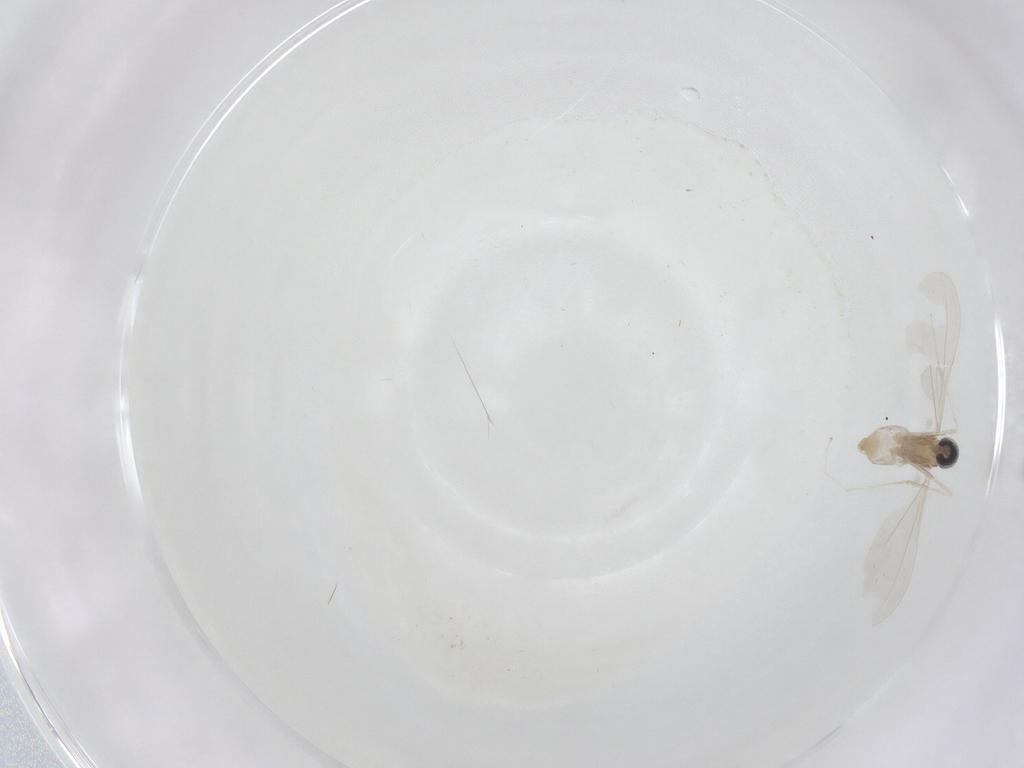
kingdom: Animalia
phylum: Arthropoda
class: Insecta
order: Diptera
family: Cecidomyiidae
